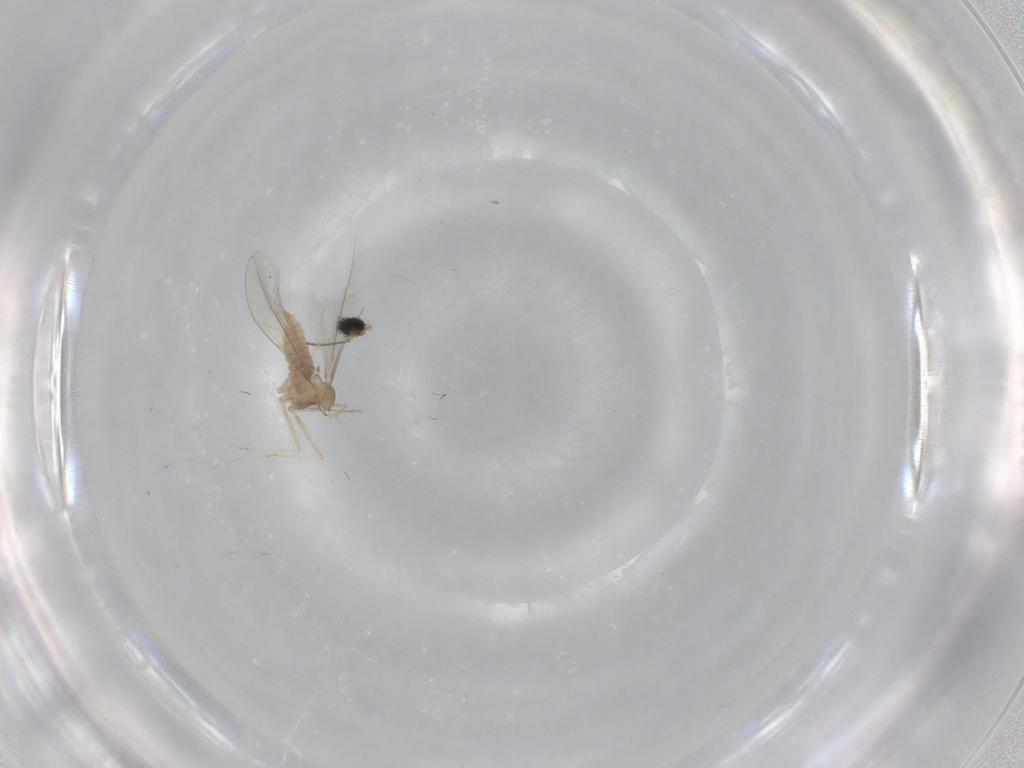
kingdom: Animalia
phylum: Arthropoda
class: Insecta
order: Diptera
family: Cecidomyiidae
